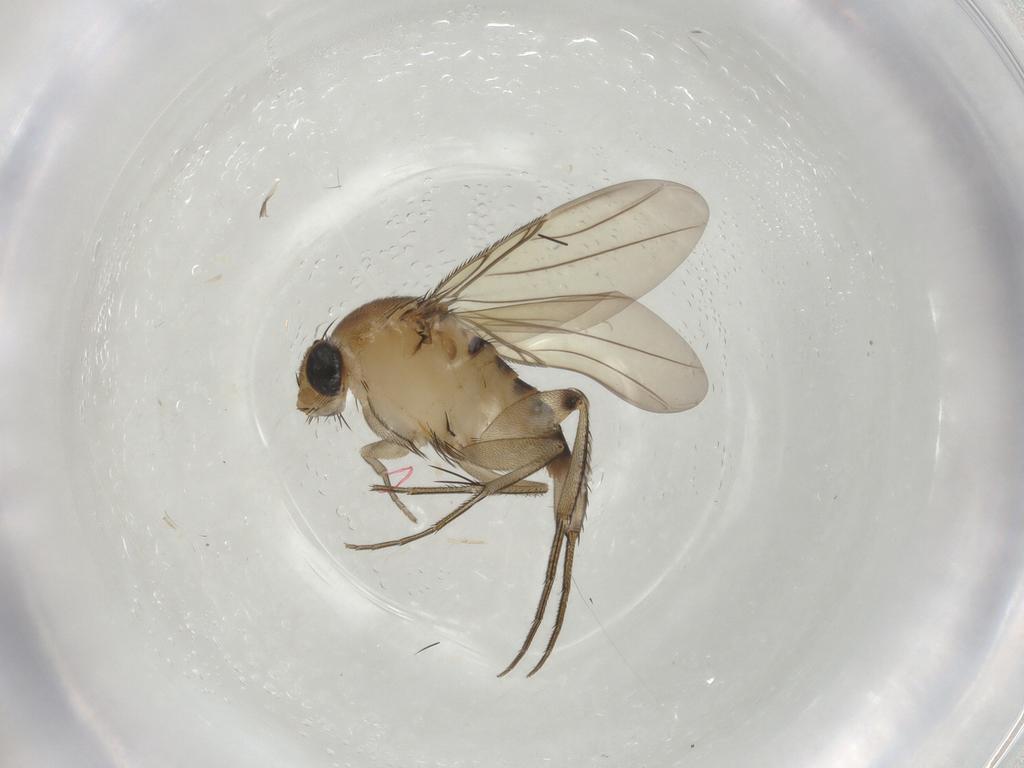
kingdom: Animalia
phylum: Arthropoda
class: Insecta
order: Diptera
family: Phoridae
